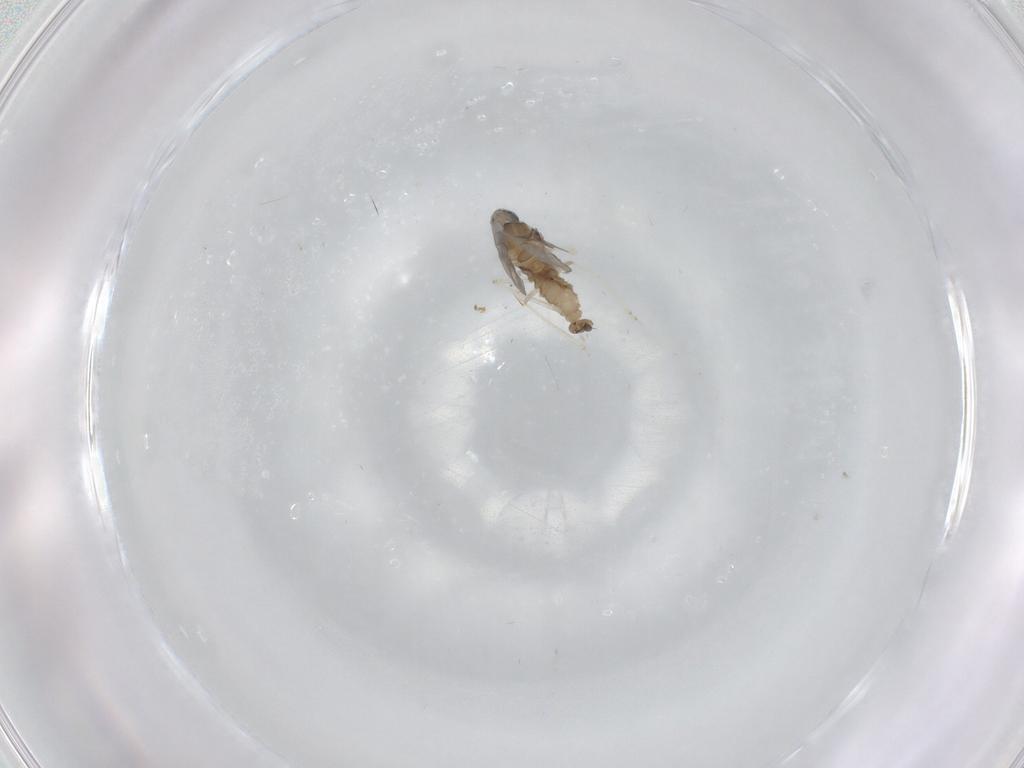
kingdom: Animalia
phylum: Arthropoda
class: Insecta
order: Diptera
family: Cecidomyiidae
